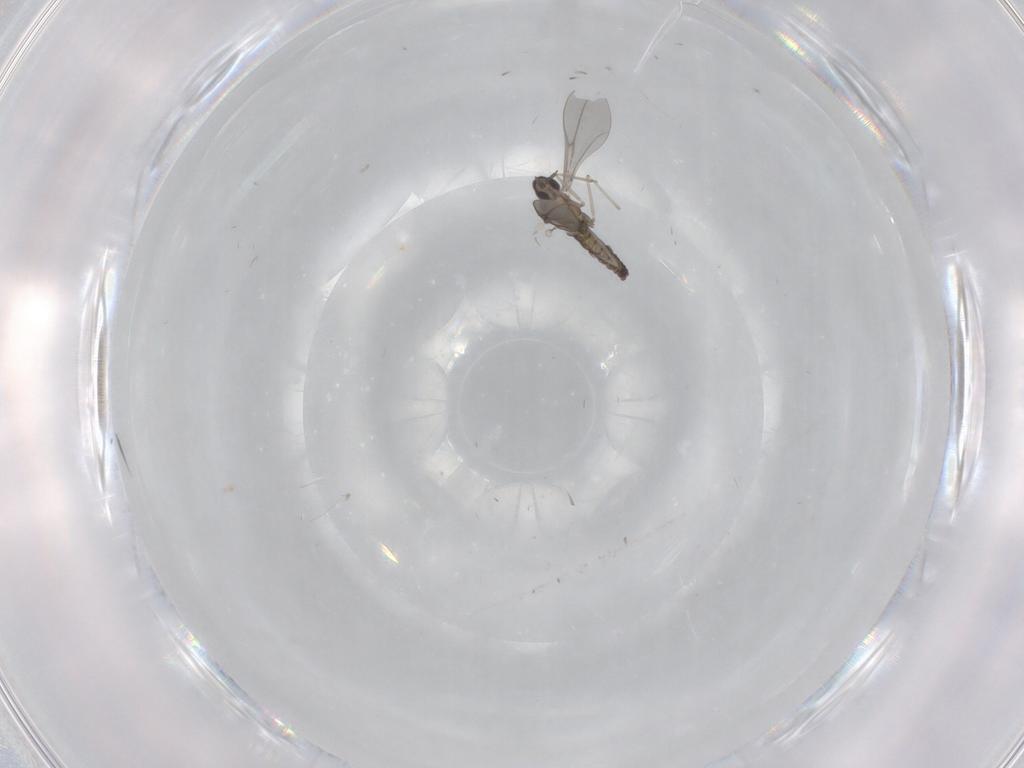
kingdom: Animalia
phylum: Arthropoda
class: Insecta
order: Diptera
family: Cecidomyiidae
